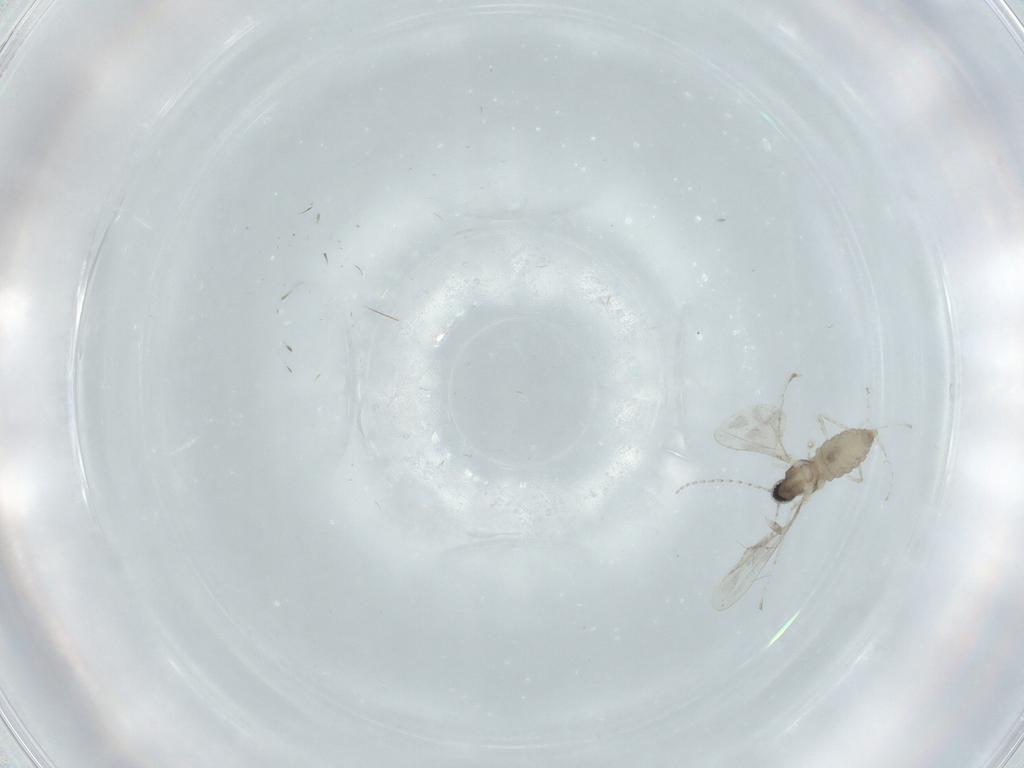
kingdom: Animalia
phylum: Arthropoda
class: Insecta
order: Diptera
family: Cecidomyiidae
